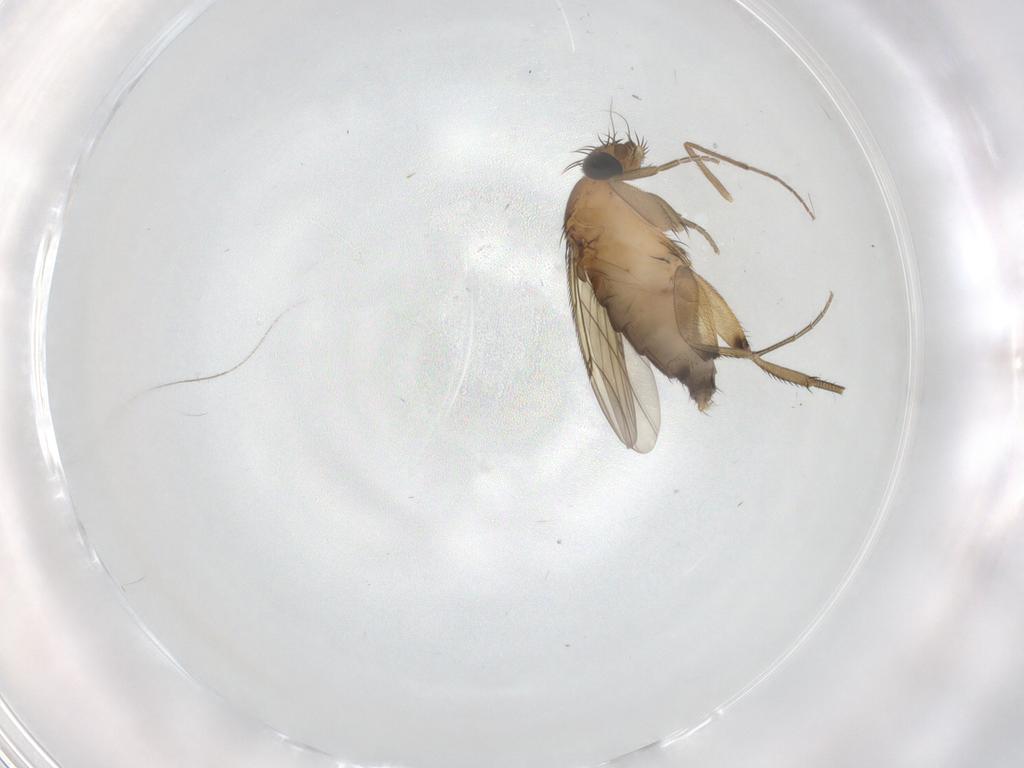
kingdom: Animalia
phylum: Arthropoda
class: Insecta
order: Diptera
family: Phoridae
